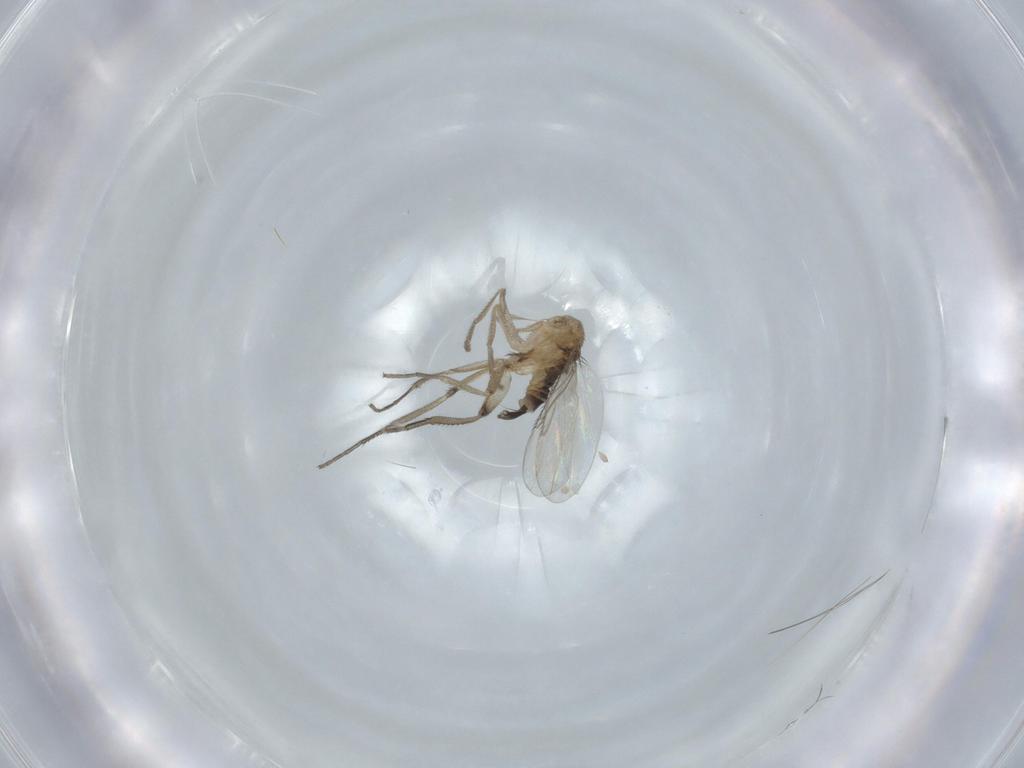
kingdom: Animalia
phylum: Arthropoda
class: Insecta
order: Diptera
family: Phoridae
